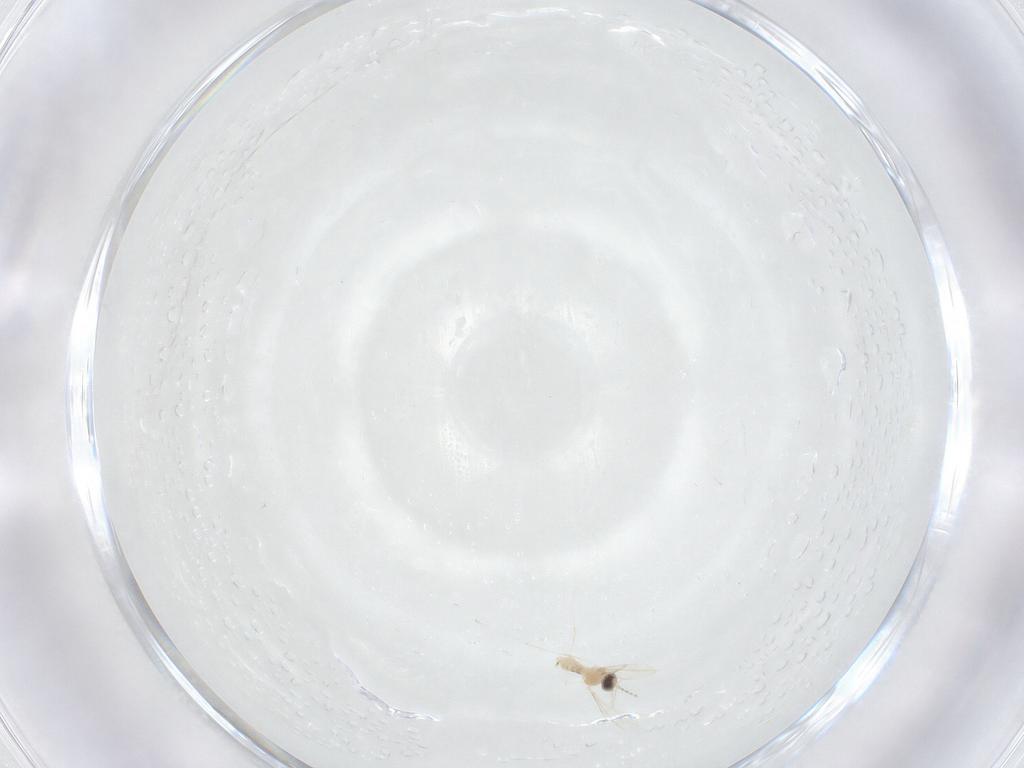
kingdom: Animalia
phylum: Arthropoda
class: Insecta
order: Diptera
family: Cecidomyiidae
